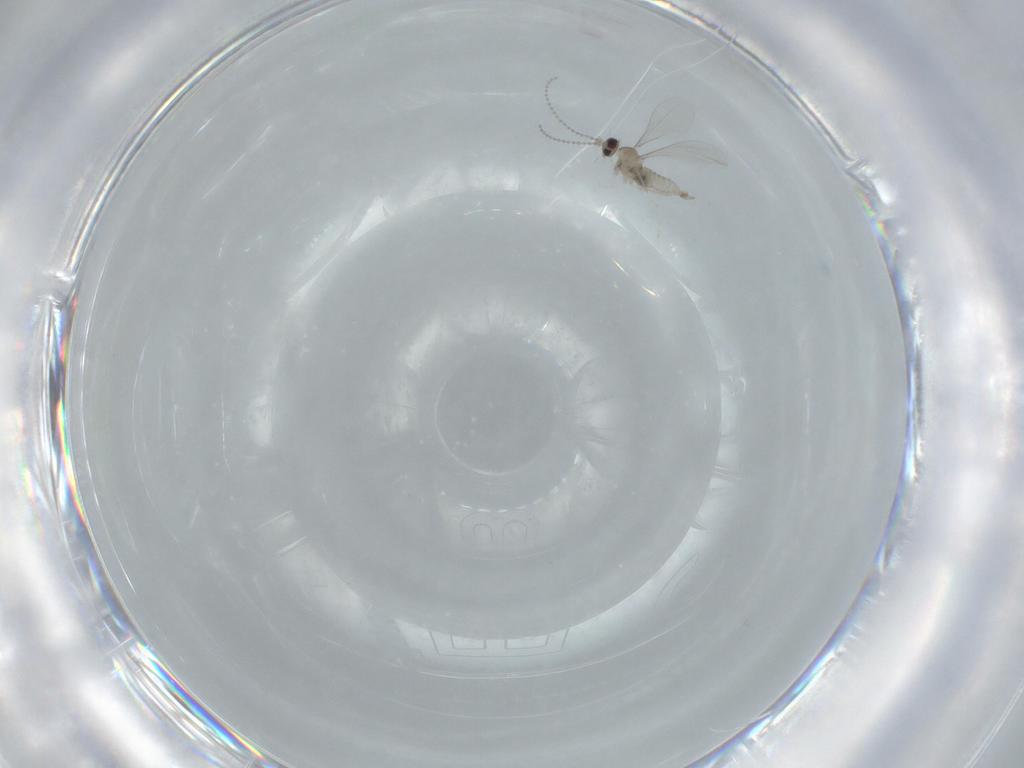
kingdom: Animalia
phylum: Arthropoda
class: Insecta
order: Diptera
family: Cecidomyiidae
